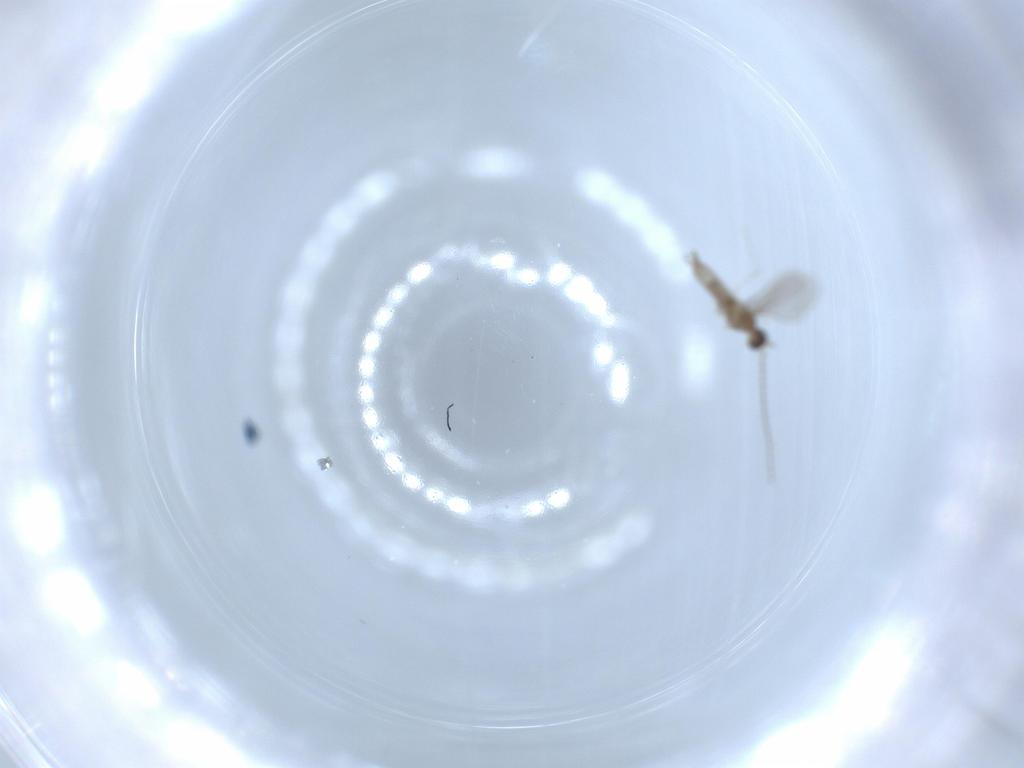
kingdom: Animalia
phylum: Arthropoda
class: Insecta
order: Diptera
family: Cecidomyiidae
